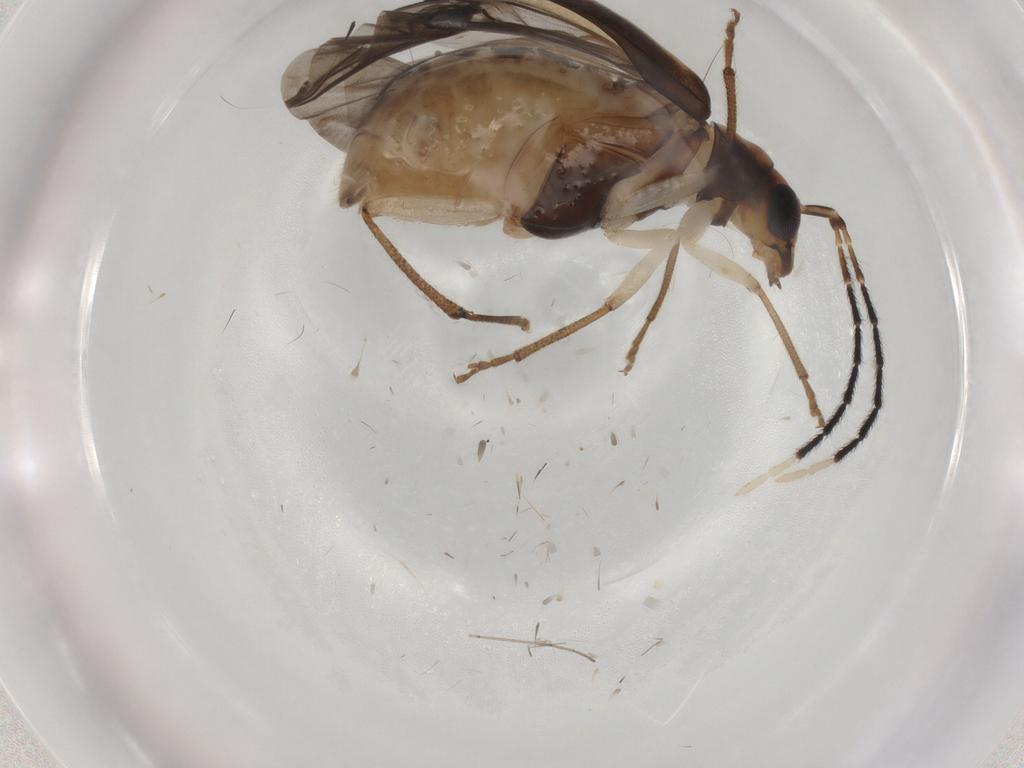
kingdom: Animalia
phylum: Arthropoda
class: Insecta
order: Coleoptera
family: Chrysomelidae
